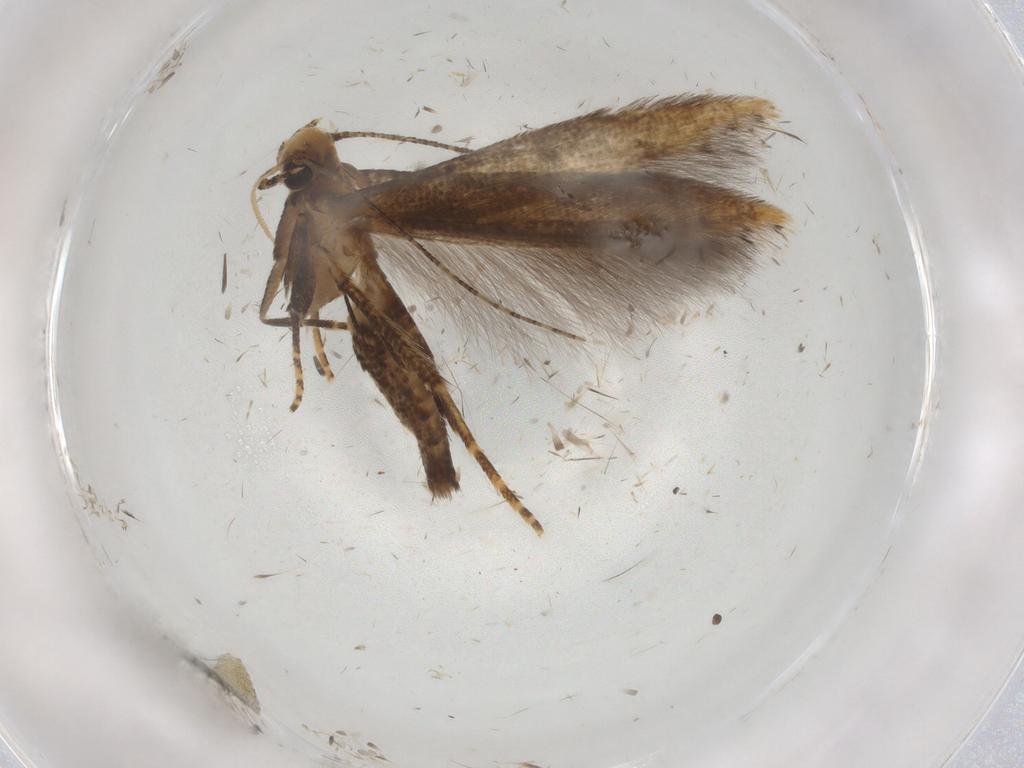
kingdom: Animalia
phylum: Arthropoda
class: Insecta
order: Lepidoptera
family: Crambidae
